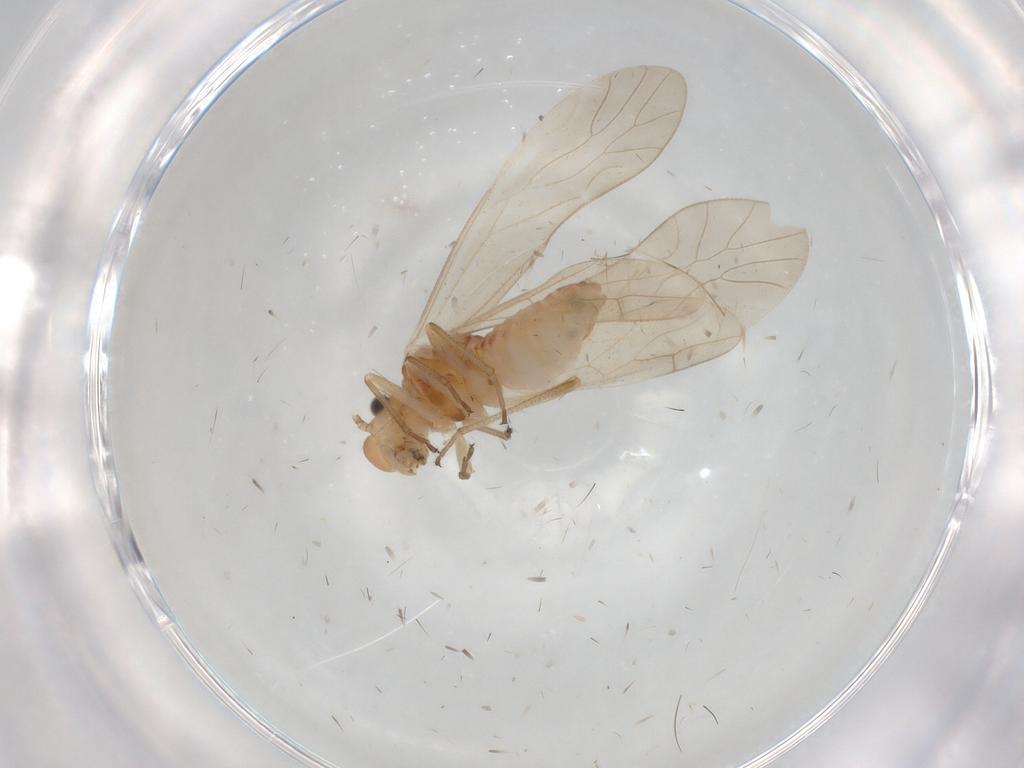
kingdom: Animalia
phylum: Arthropoda
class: Insecta
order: Psocodea
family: Caeciliusidae
